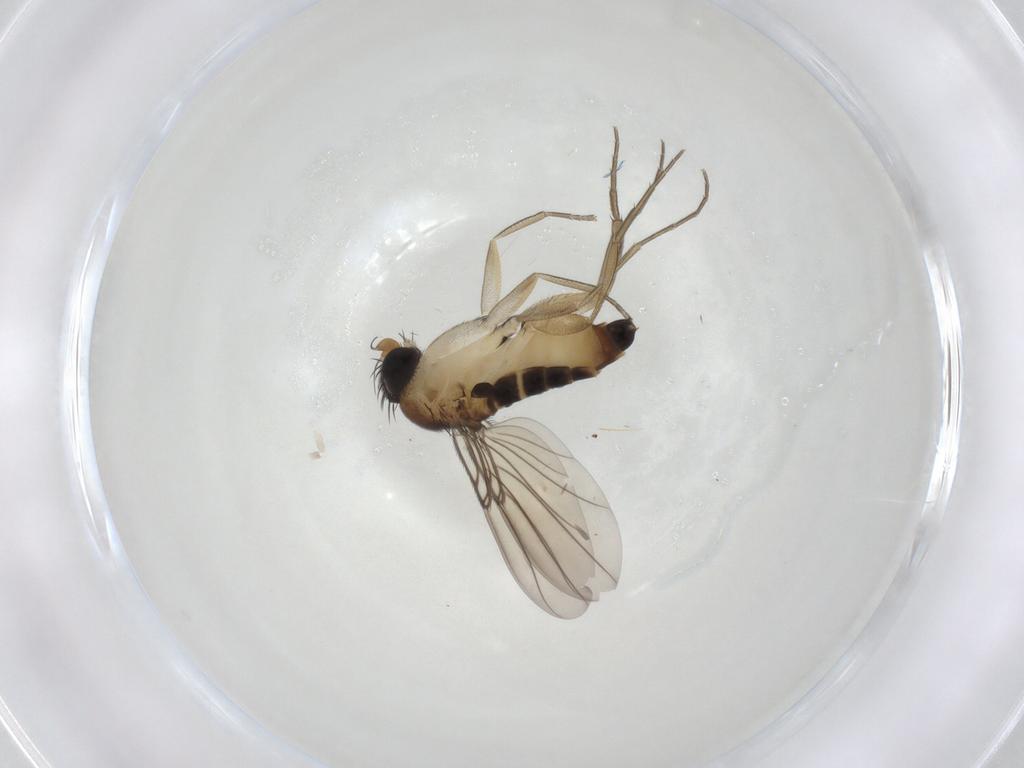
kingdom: Animalia
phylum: Arthropoda
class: Insecta
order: Diptera
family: Phoridae
